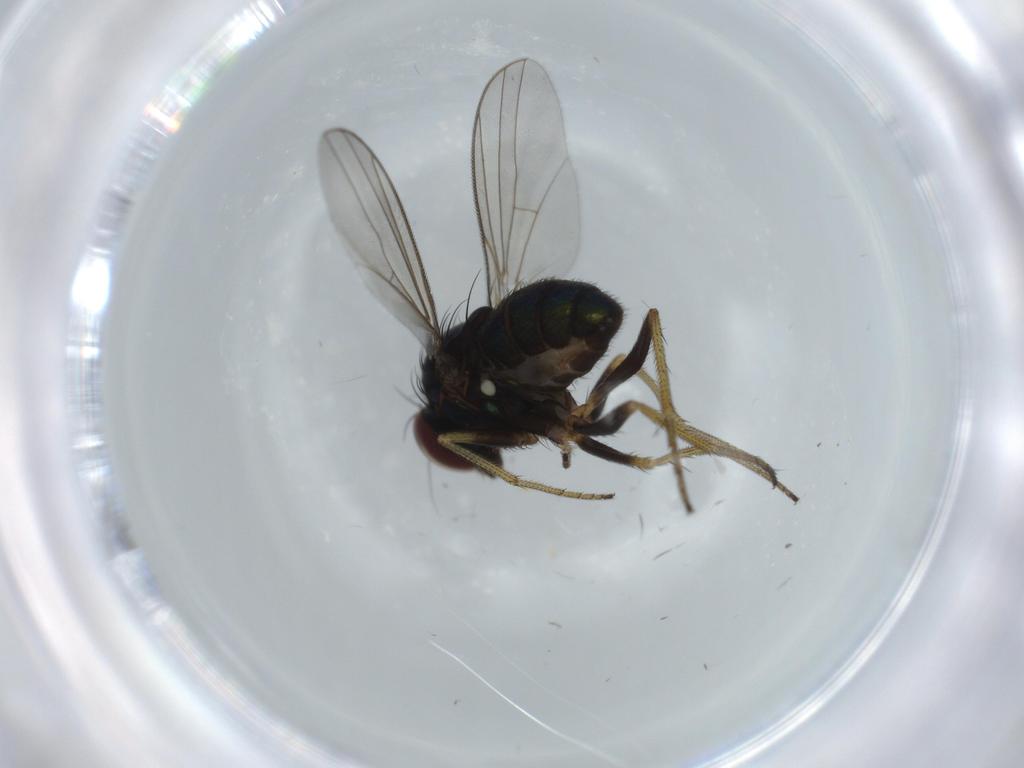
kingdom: Animalia
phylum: Arthropoda
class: Insecta
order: Diptera
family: Dolichopodidae
